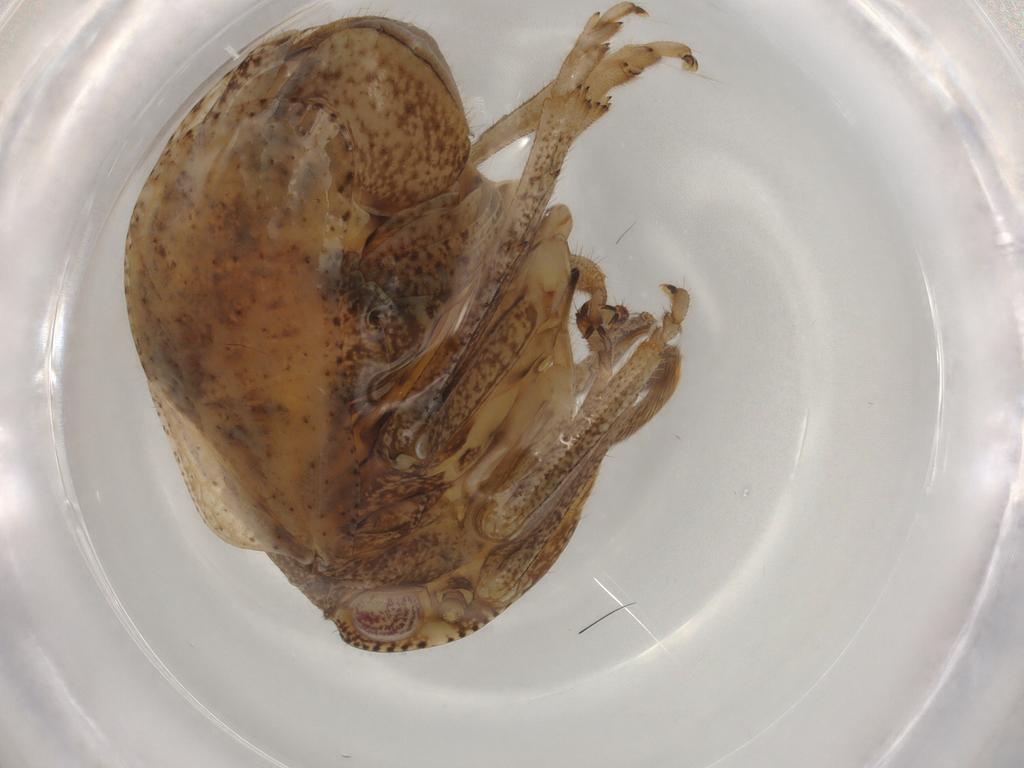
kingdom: Animalia
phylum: Arthropoda
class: Insecta
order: Hemiptera
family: Tropiduchidae
